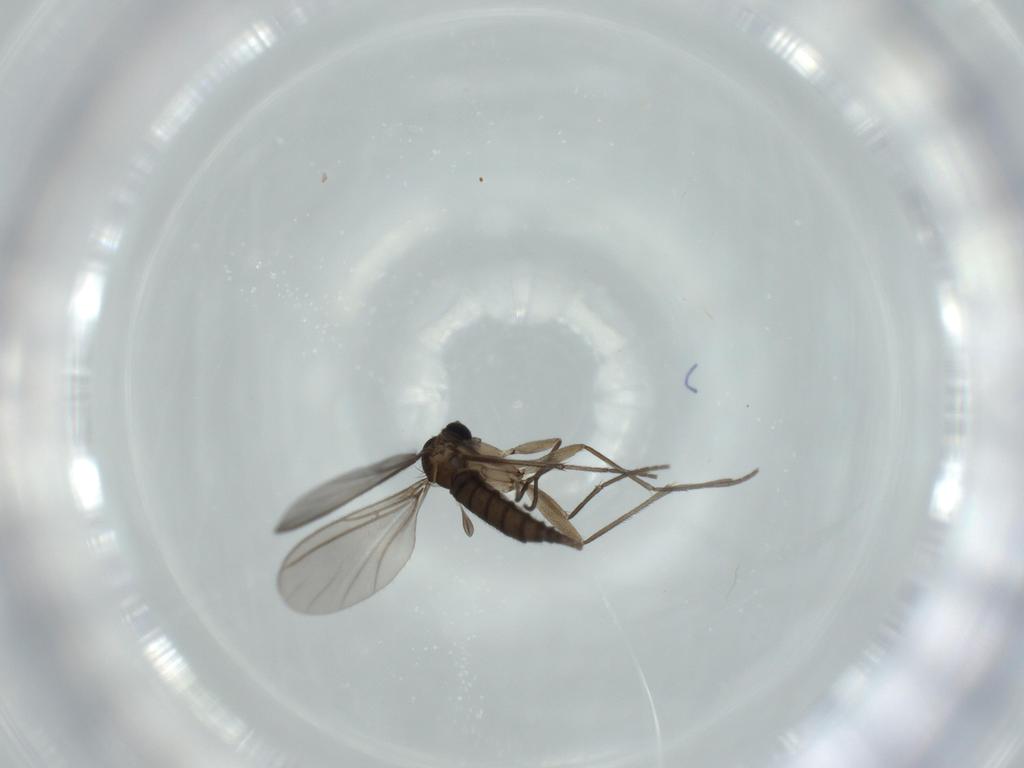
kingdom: Animalia
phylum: Arthropoda
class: Insecta
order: Diptera
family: Sciaridae
